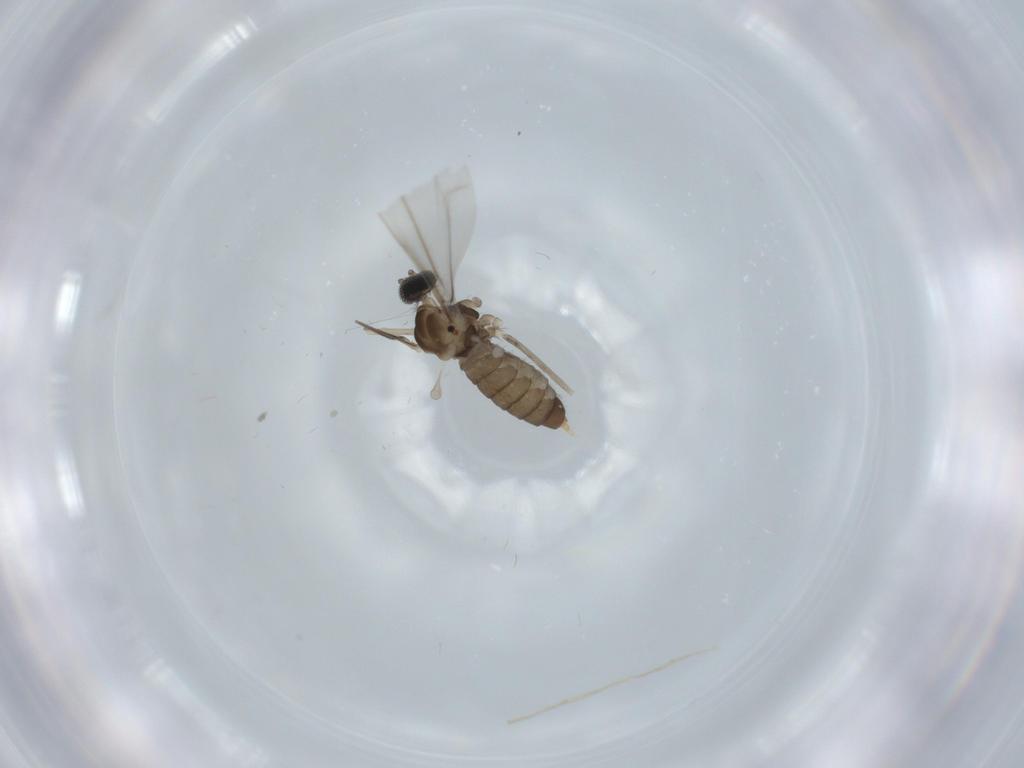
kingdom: Animalia
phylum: Arthropoda
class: Insecta
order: Diptera
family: Cecidomyiidae
